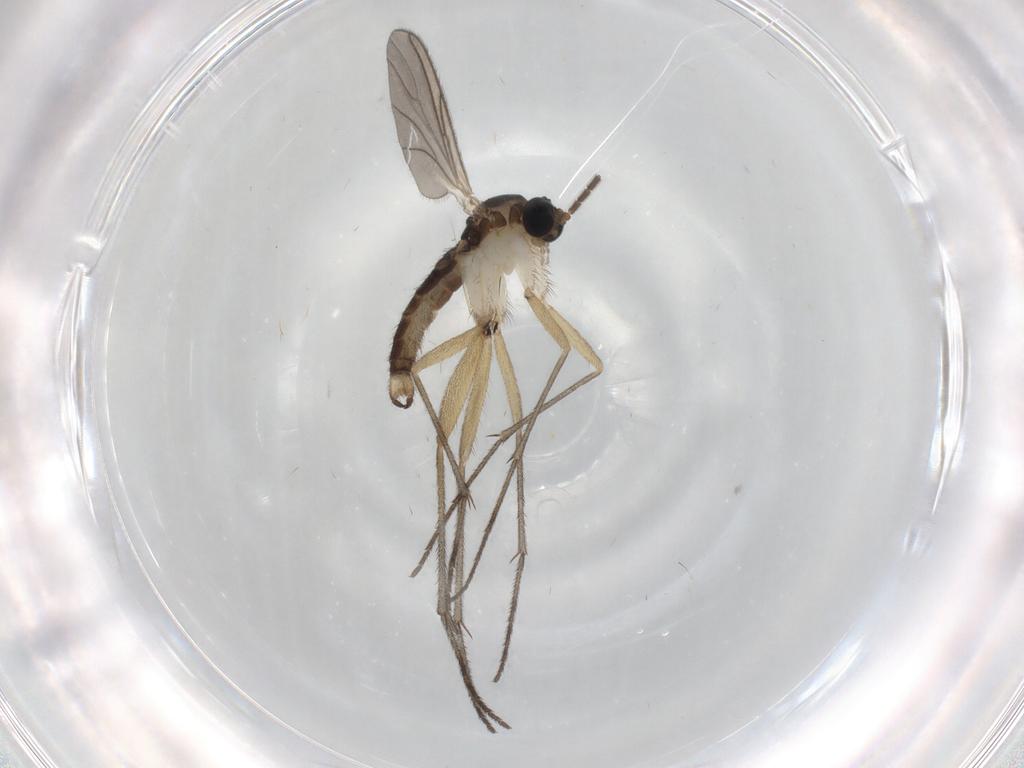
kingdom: Animalia
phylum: Arthropoda
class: Insecta
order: Diptera
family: Sciaridae
